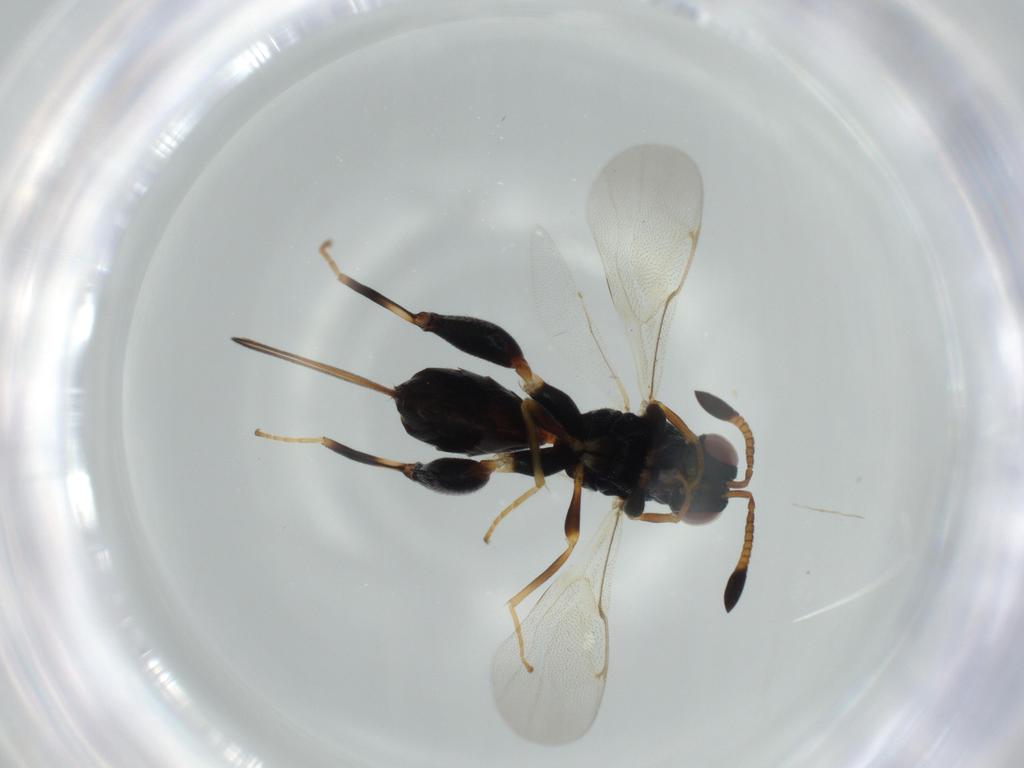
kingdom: Animalia
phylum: Arthropoda
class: Insecta
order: Hymenoptera
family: Torymidae
